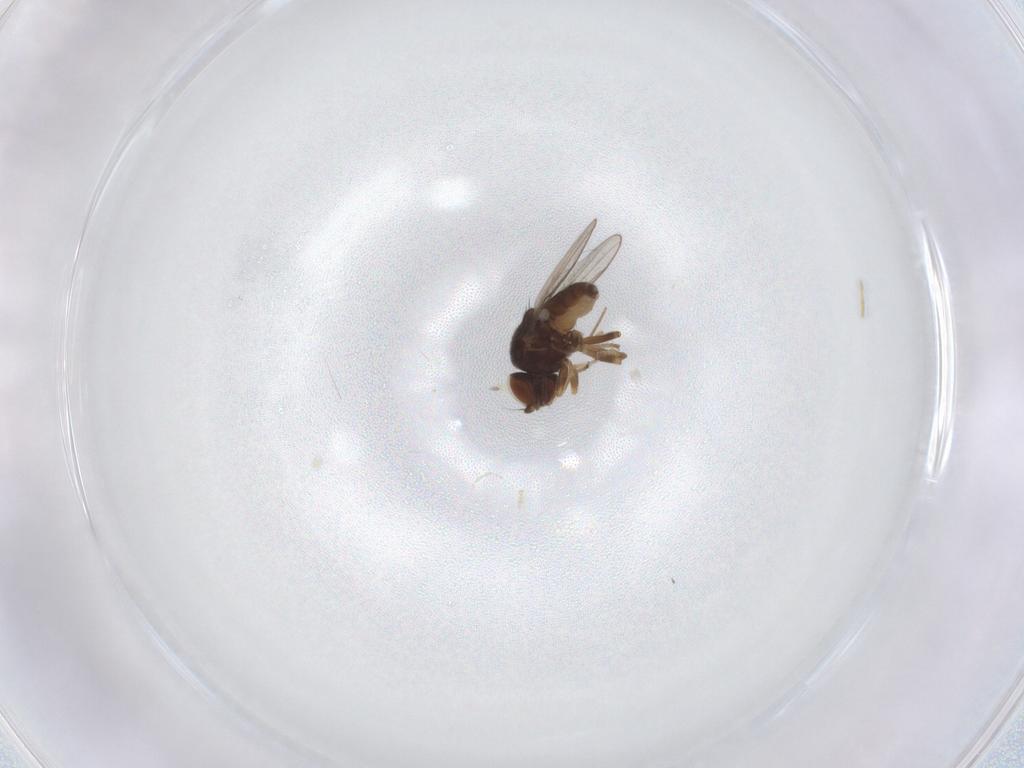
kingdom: Animalia
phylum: Arthropoda
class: Insecta
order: Diptera
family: Chloropidae
